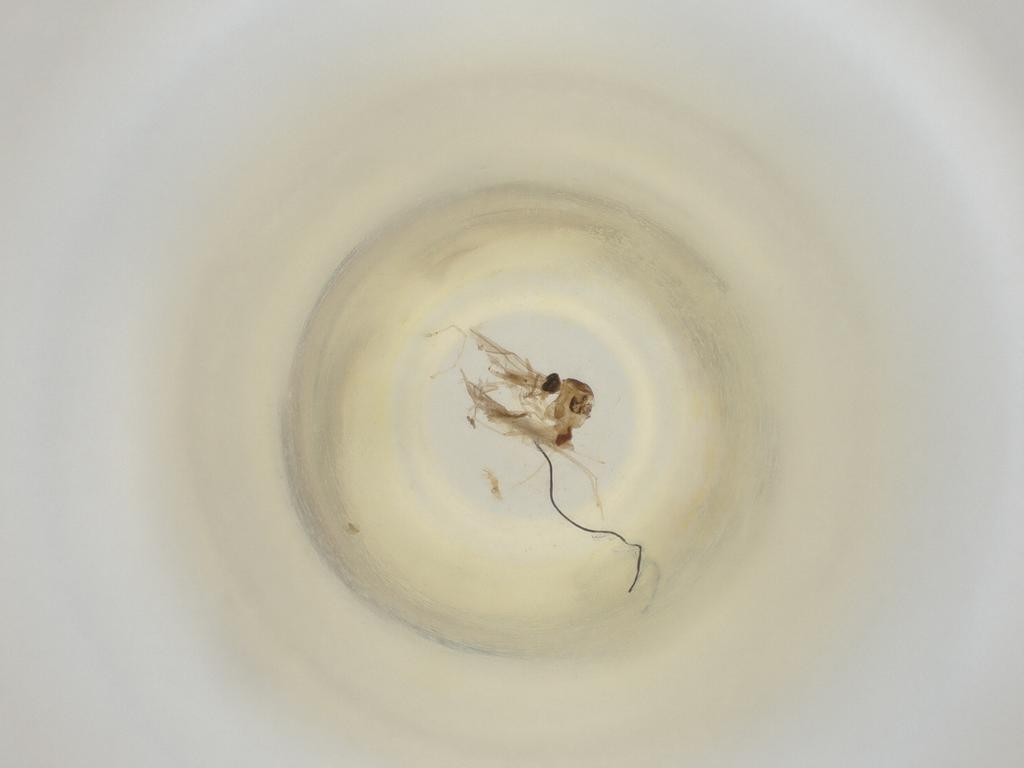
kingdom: Animalia
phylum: Arthropoda
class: Insecta
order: Diptera
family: Cecidomyiidae
